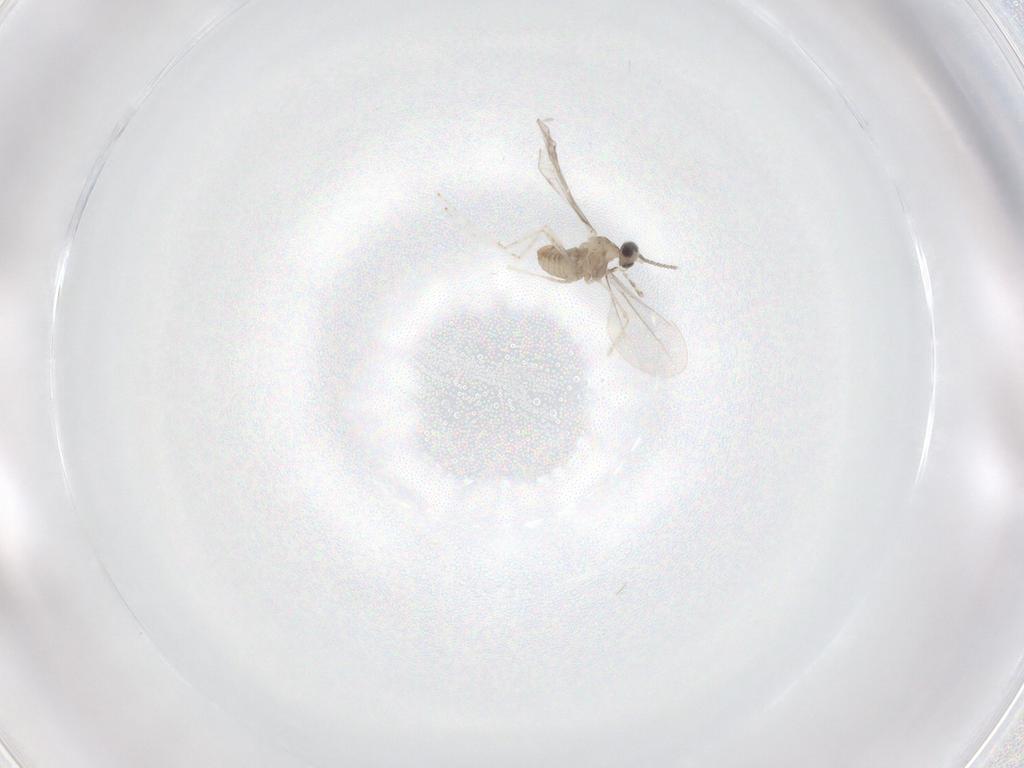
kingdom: Animalia
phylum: Arthropoda
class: Insecta
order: Diptera
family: Cecidomyiidae
